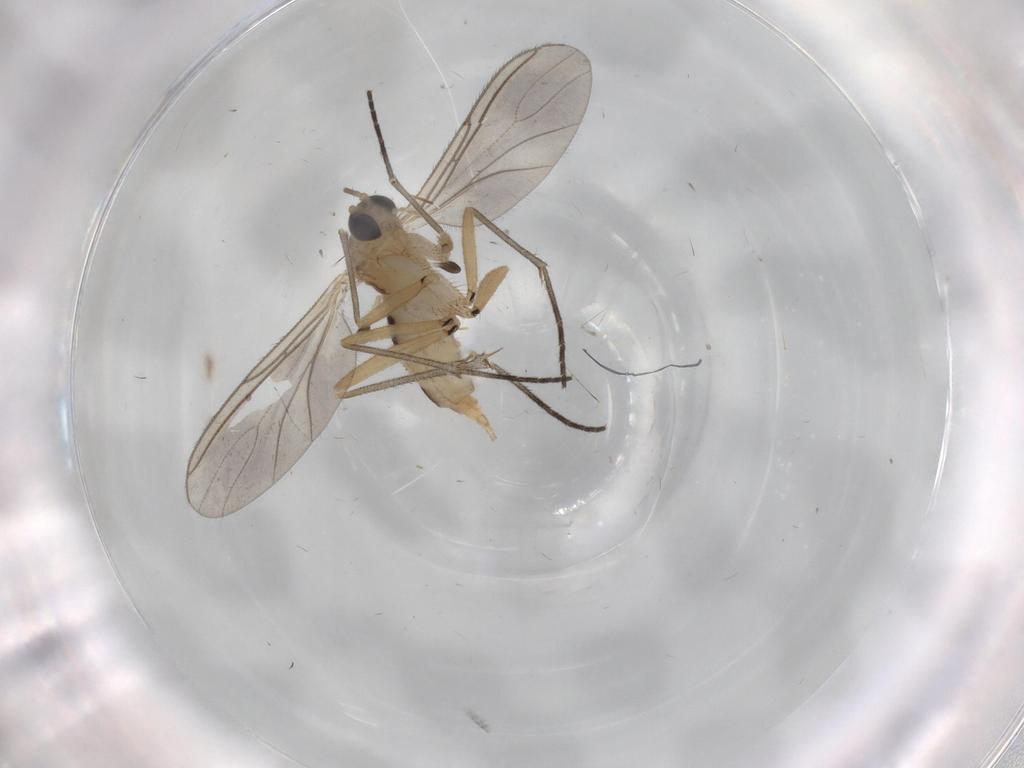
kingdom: Animalia
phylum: Arthropoda
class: Insecta
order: Diptera
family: Sciaridae
